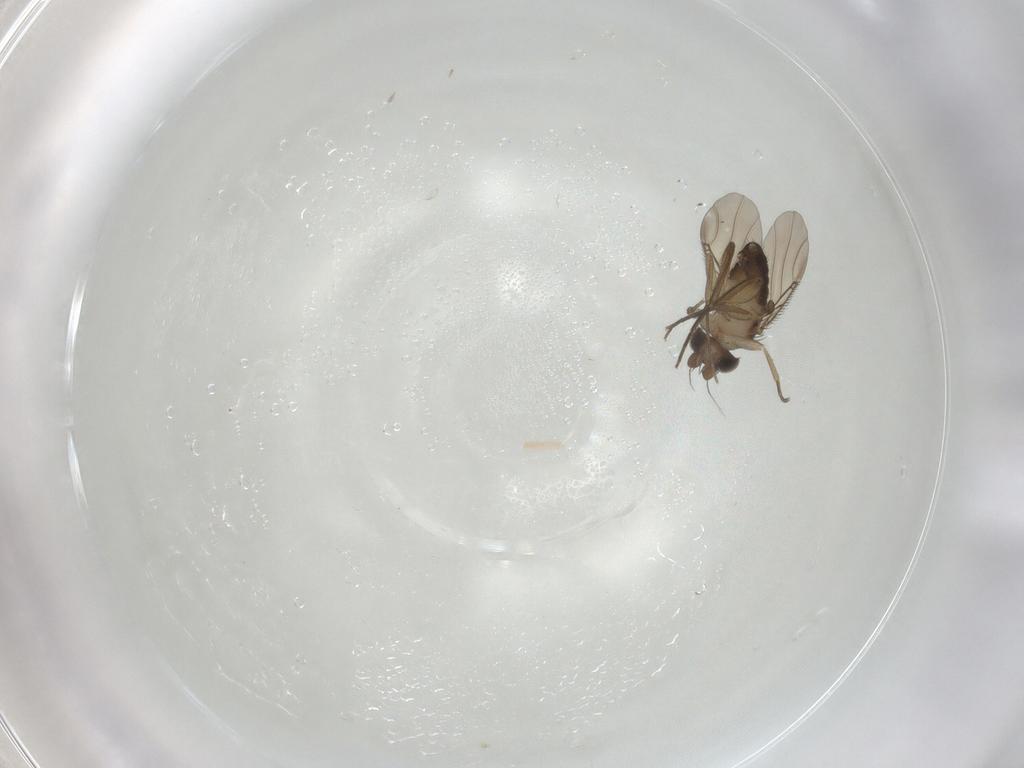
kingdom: Animalia
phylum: Arthropoda
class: Insecta
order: Diptera
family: Phoridae
